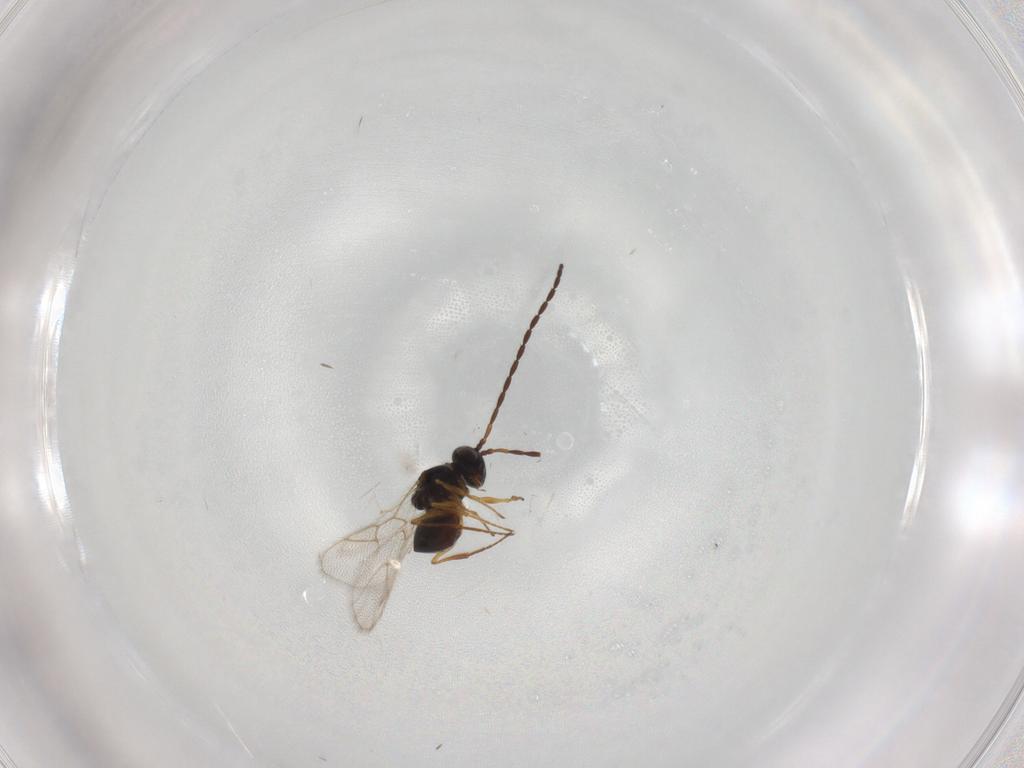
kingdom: Animalia
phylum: Arthropoda
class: Insecta
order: Hymenoptera
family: Figitidae
